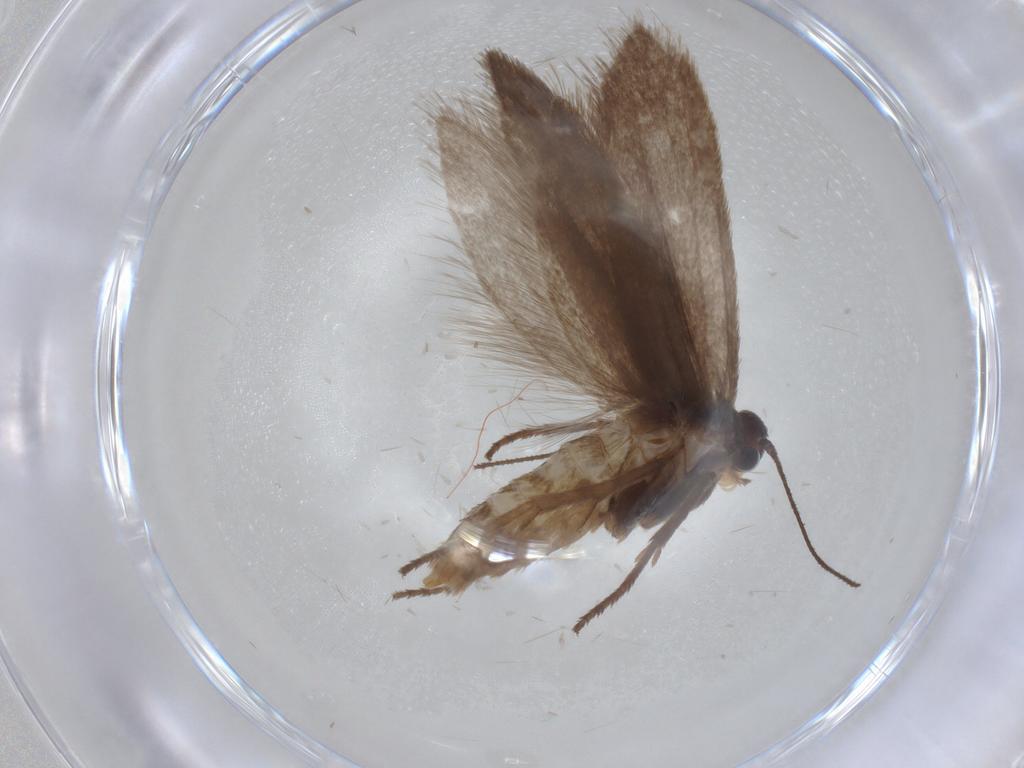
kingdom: Animalia
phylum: Arthropoda
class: Insecta
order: Lepidoptera
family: Limacodidae
